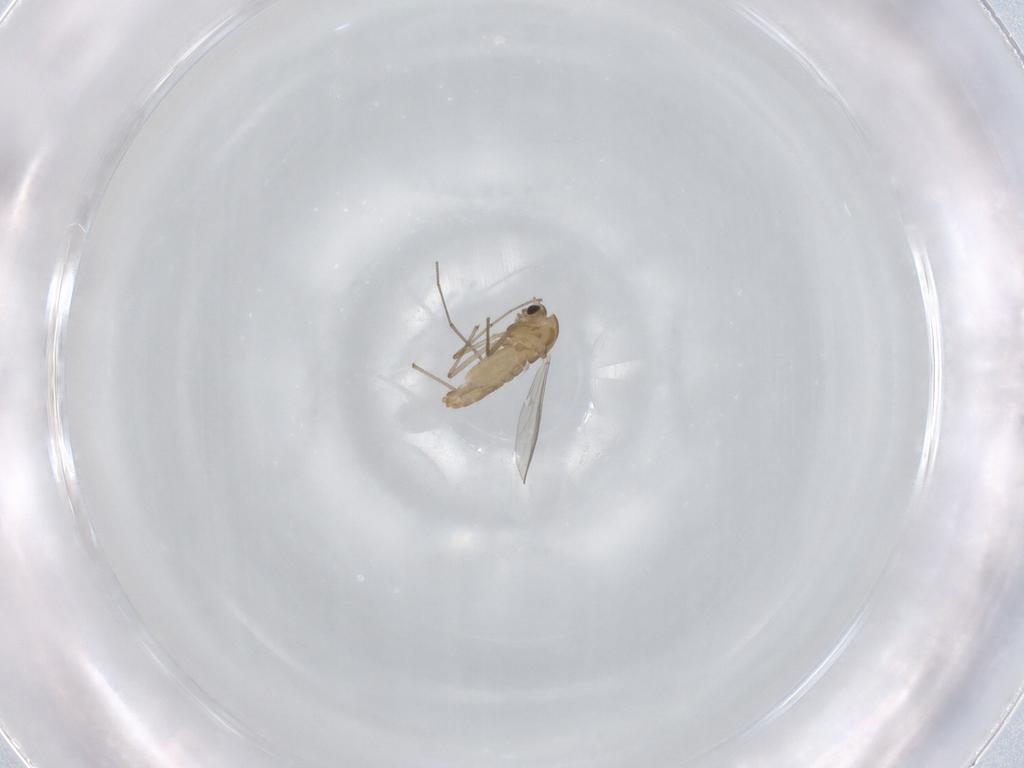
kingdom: Animalia
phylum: Arthropoda
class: Insecta
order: Diptera
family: Chironomidae
